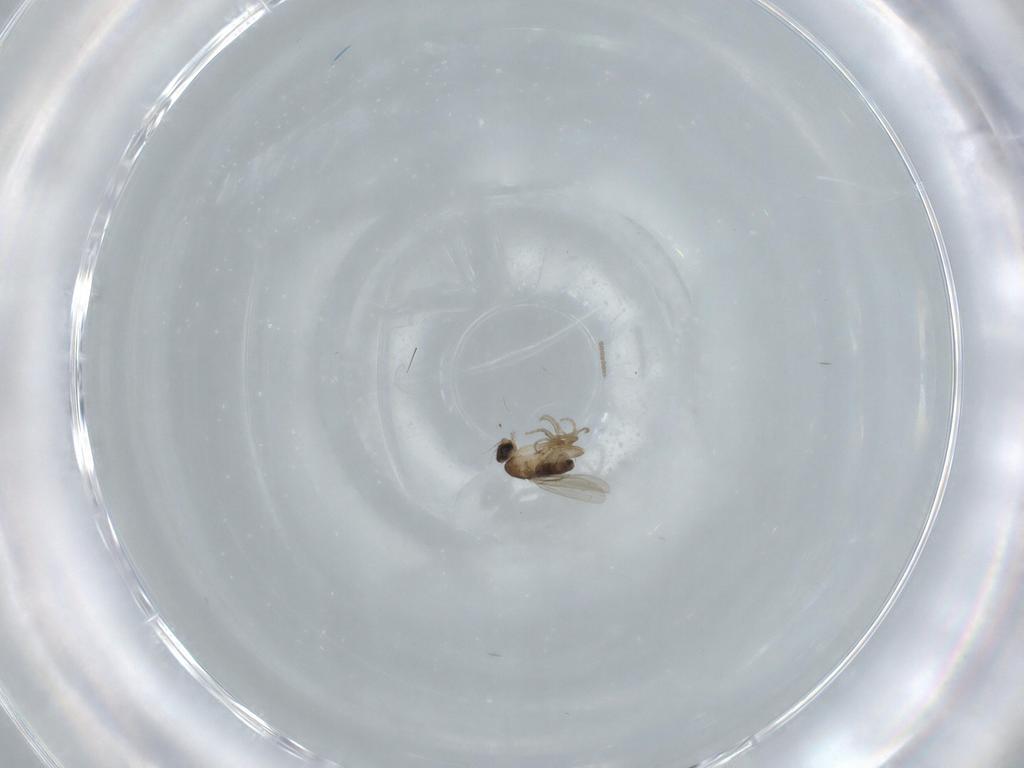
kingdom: Animalia
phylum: Arthropoda
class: Insecta
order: Diptera
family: Cecidomyiidae
